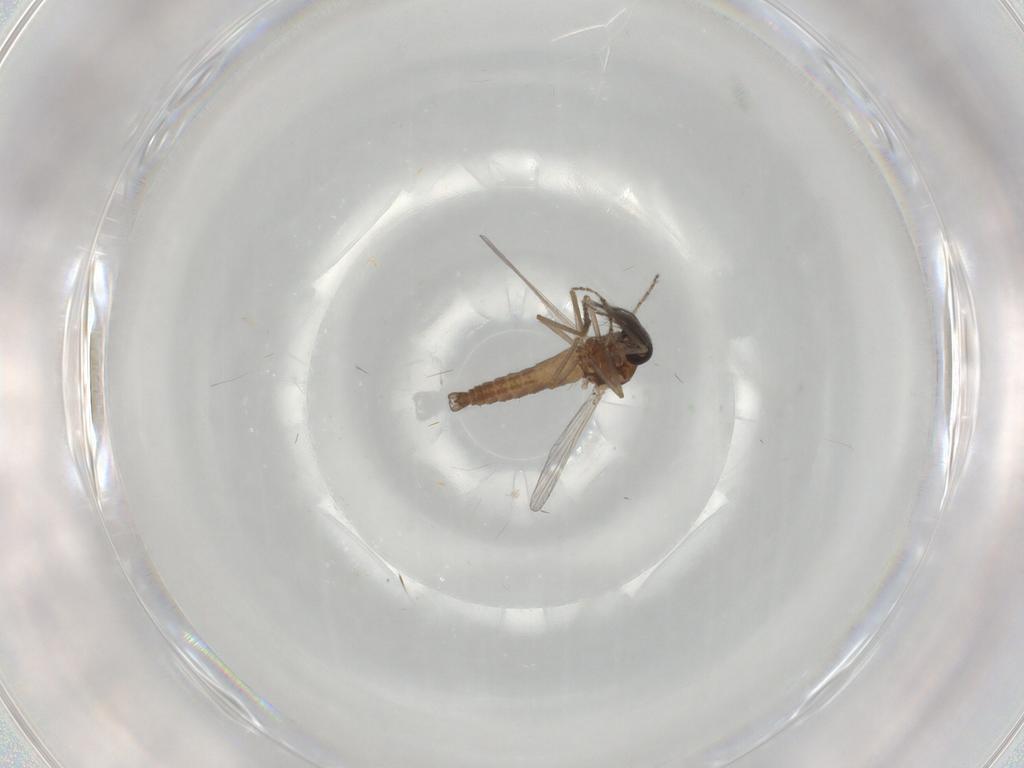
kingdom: Animalia
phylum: Arthropoda
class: Insecta
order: Diptera
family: Ceratopogonidae
